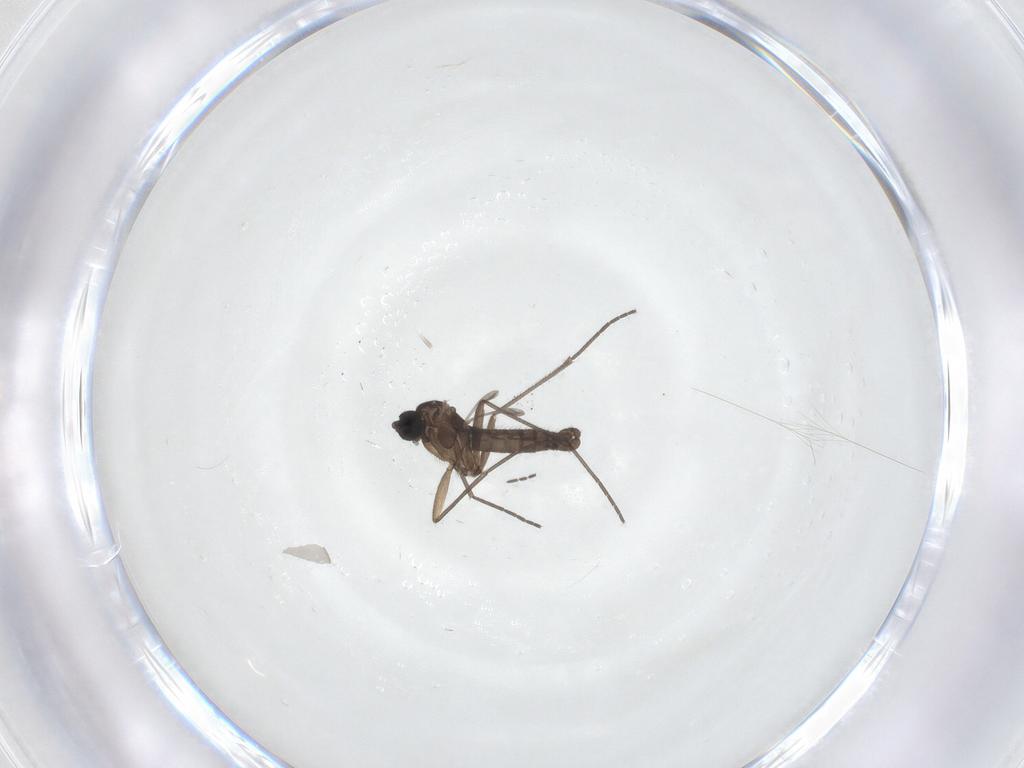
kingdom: Animalia
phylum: Arthropoda
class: Insecta
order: Diptera
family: Sciaridae
